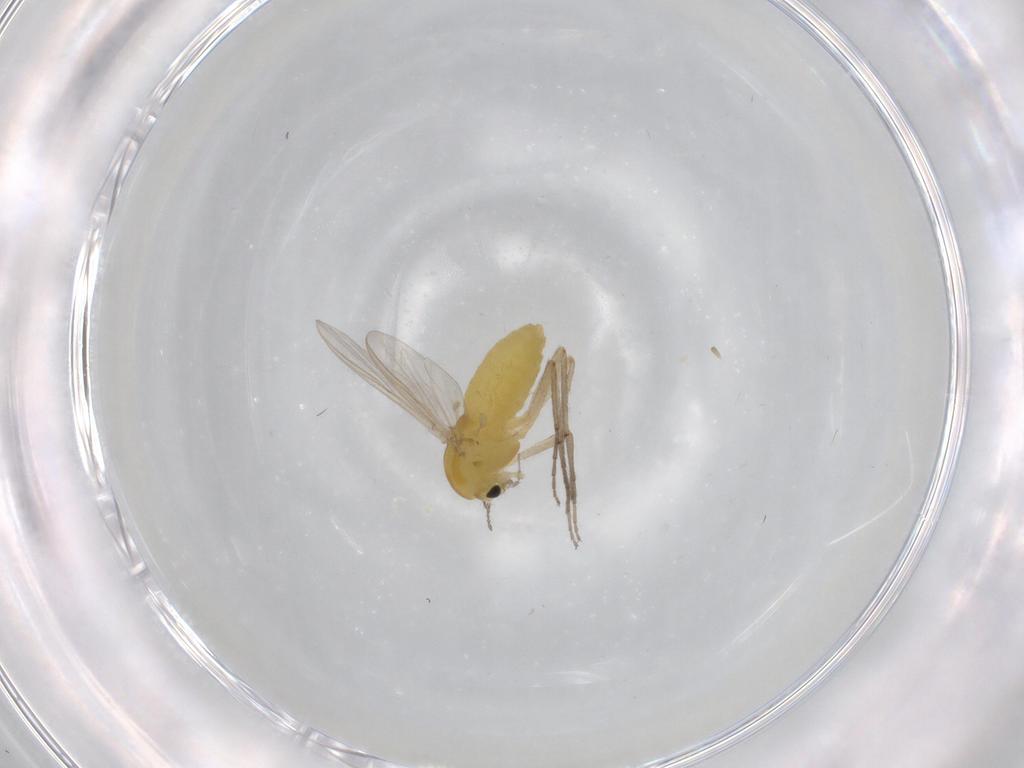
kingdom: Animalia
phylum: Arthropoda
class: Insecta
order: Diptera
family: Chironomidae
